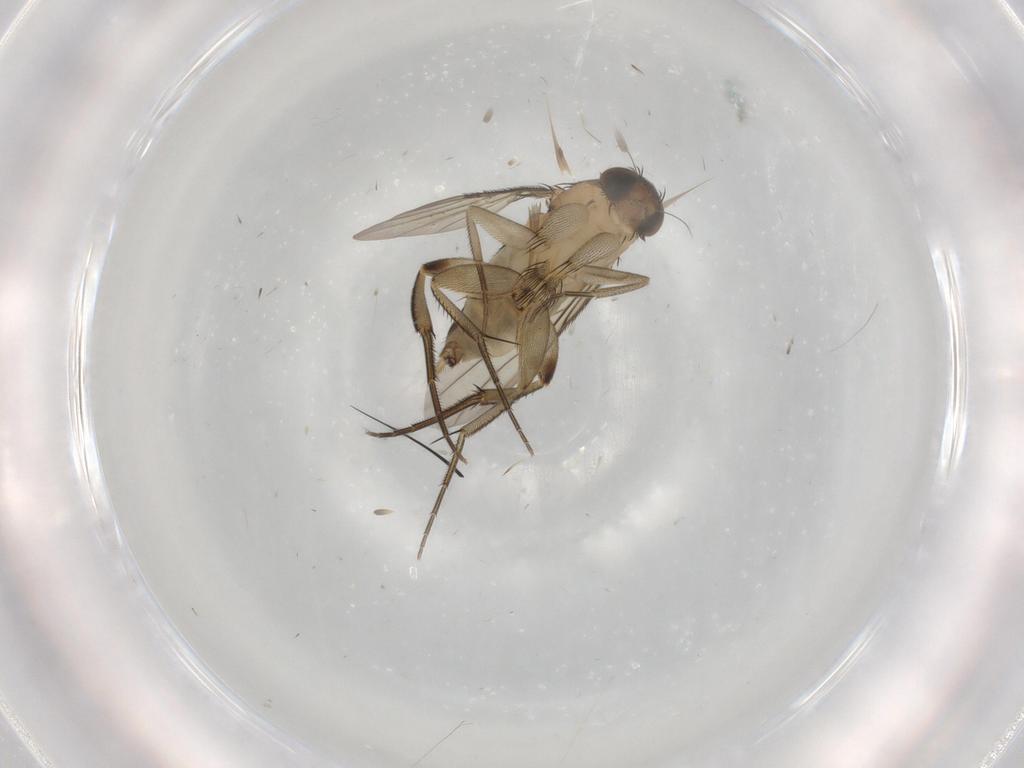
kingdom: Animalia
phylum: Arthropoda
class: Insecta
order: Diptera
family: Phoridae
